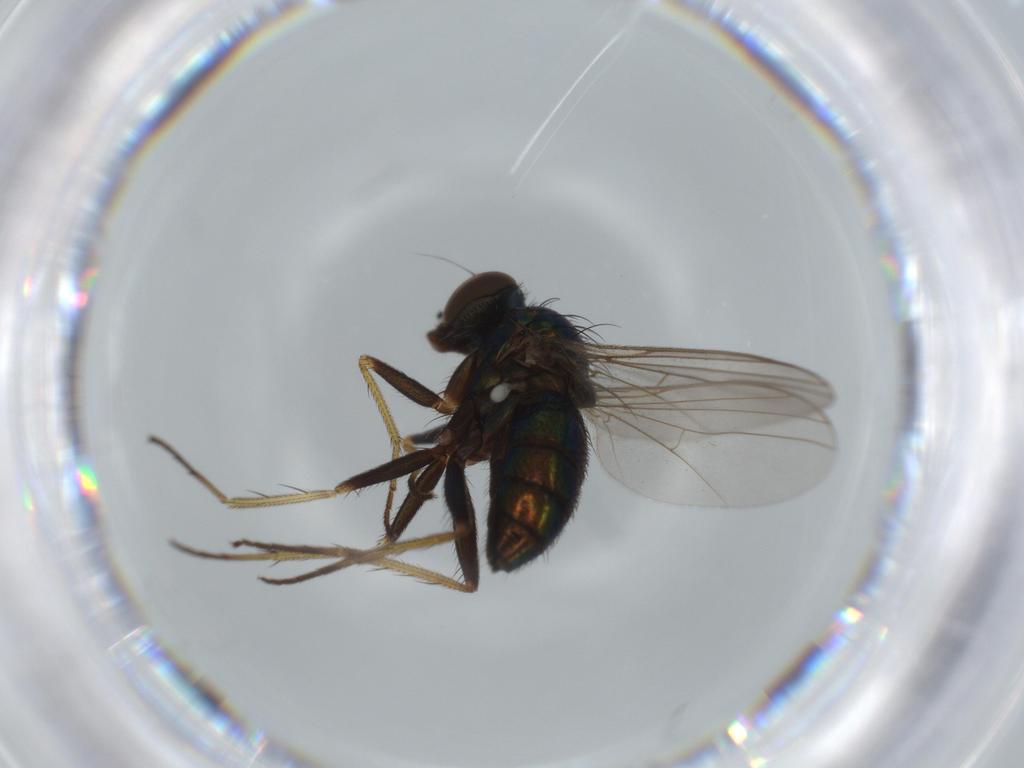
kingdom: Animalia
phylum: Arthropoda
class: Insecta
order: Diptera
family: Dolichopodidae
